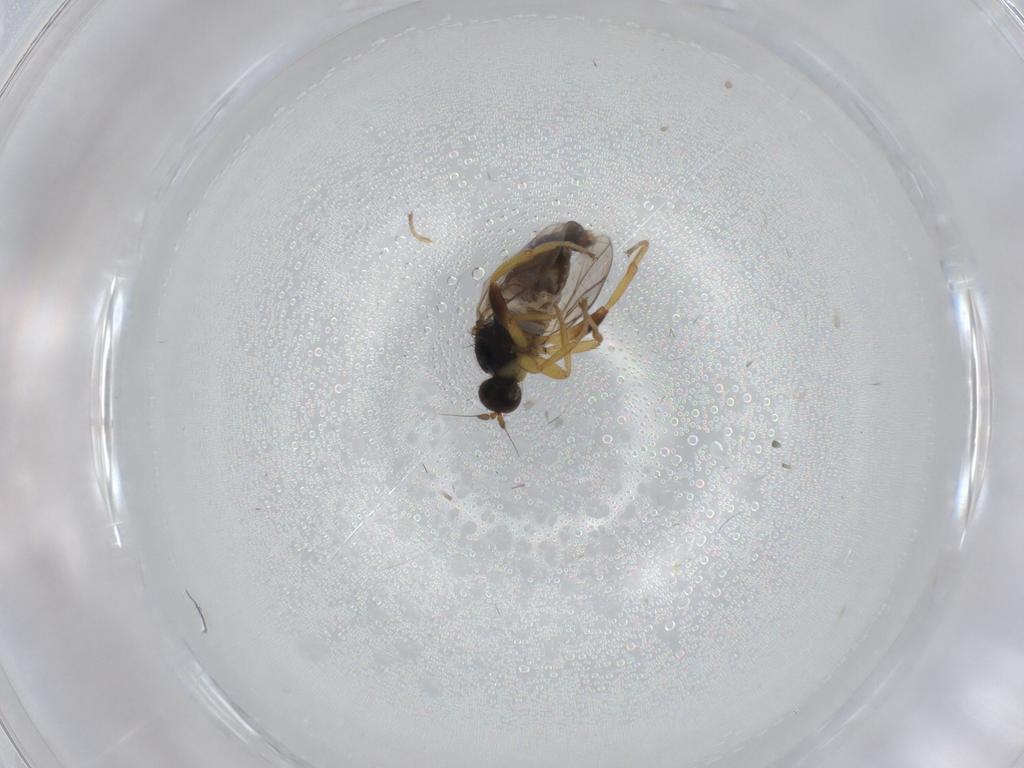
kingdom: Animalia
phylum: Arthropoda
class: Insecta
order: Diptera
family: Hybotidae
